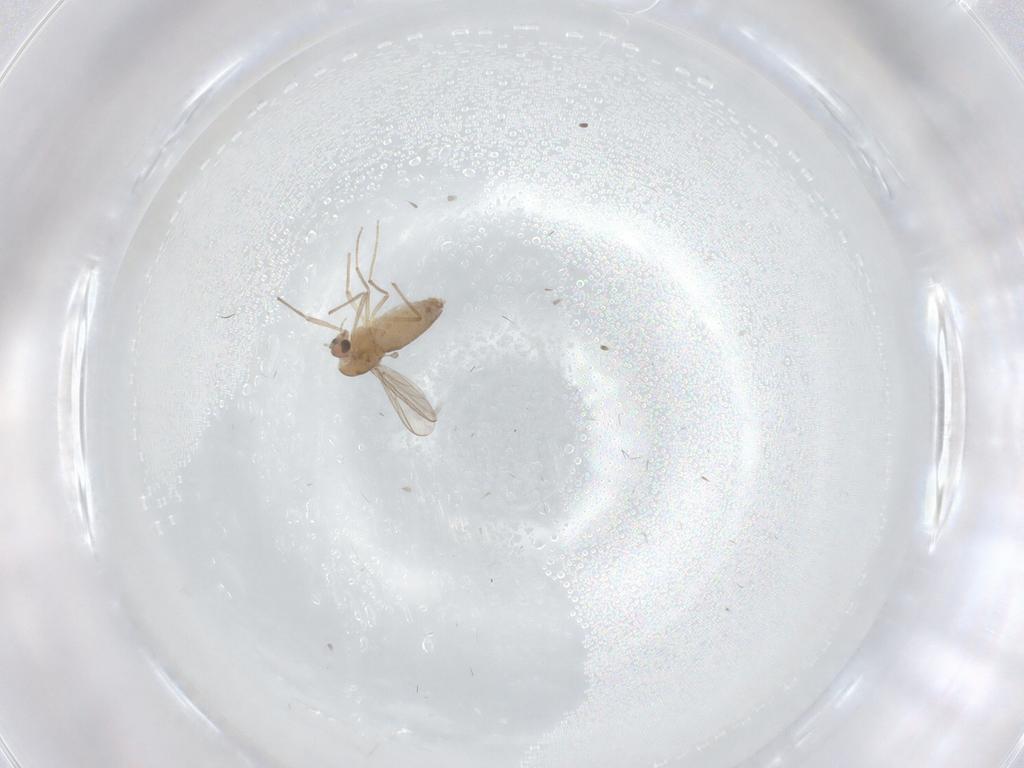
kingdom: Animalia
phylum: Arthropoda
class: Insecta
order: Diptera
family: Chironomidae
